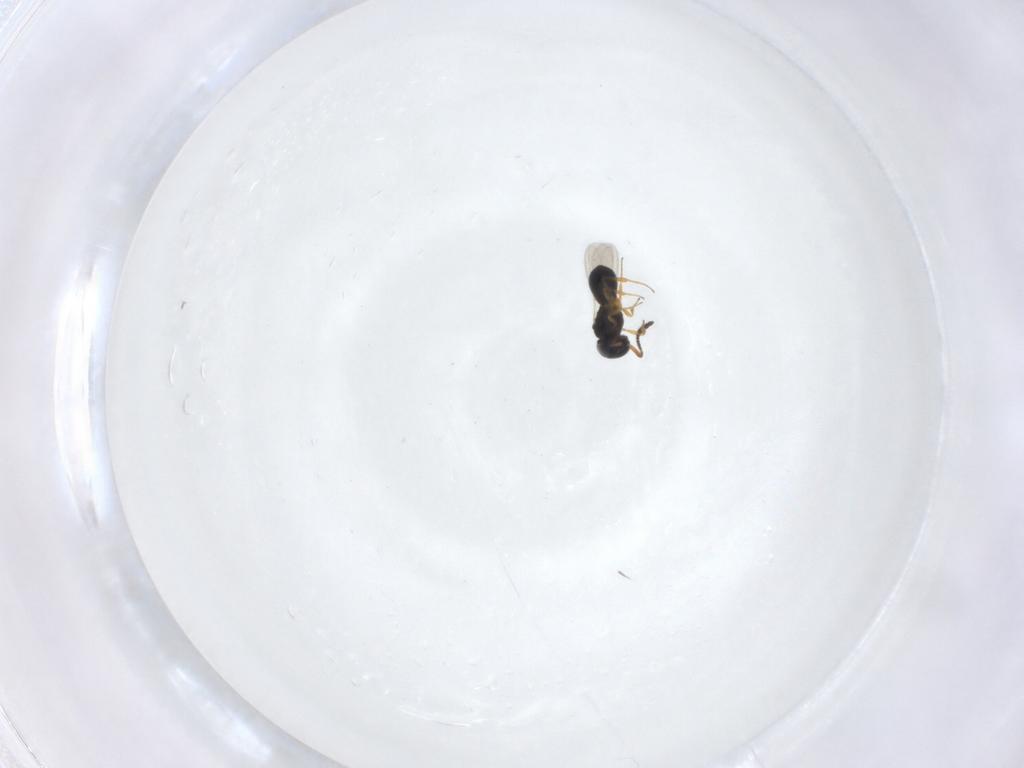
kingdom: Animalia
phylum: Arthropoda
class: Insecta
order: Hymenoptera
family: Scelionidae
